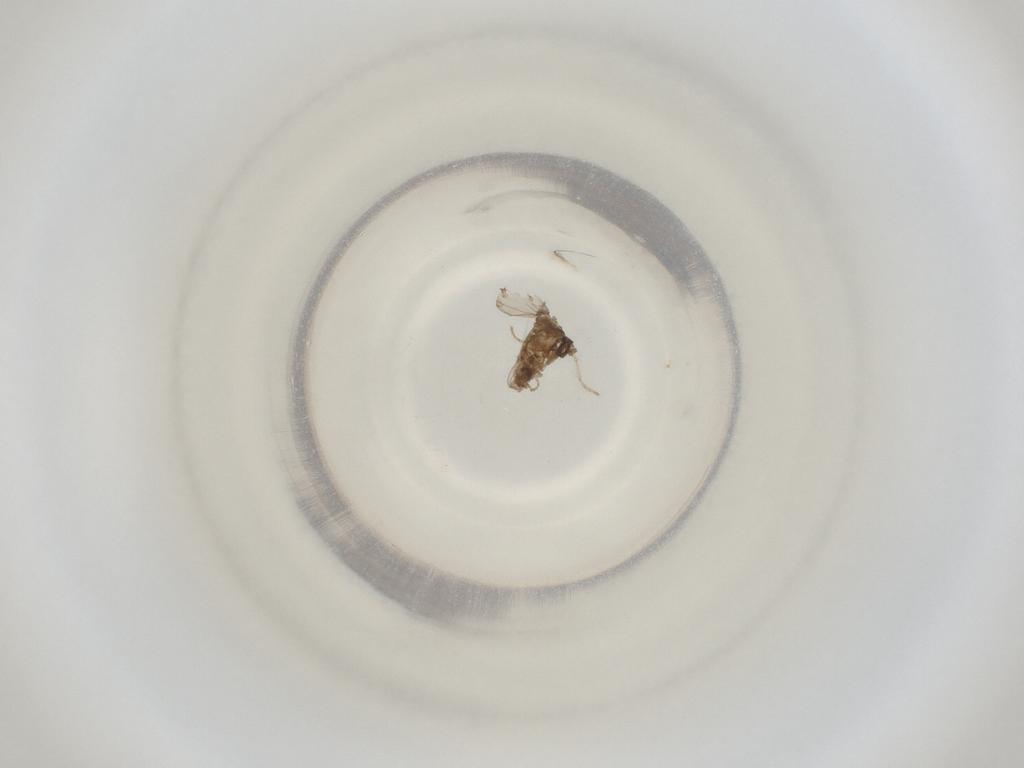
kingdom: Animalia
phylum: Arthropoda
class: Insecta
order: Diptera
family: Cecidomyiidae
